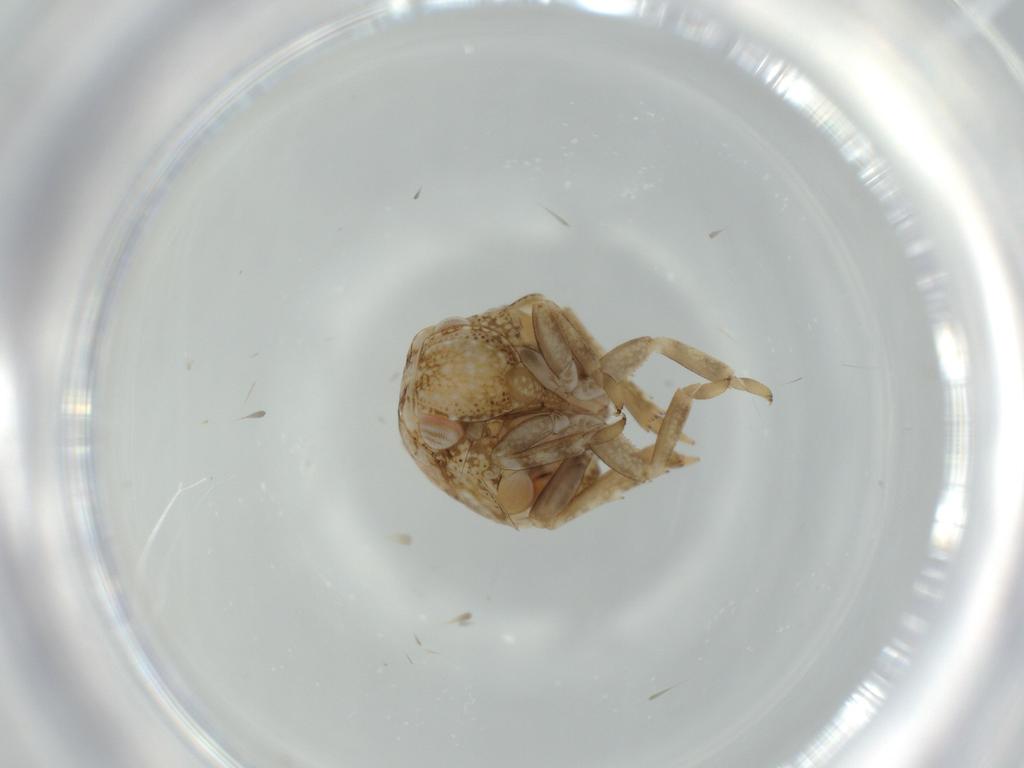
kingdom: Animalia
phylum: Arthropoda
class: Insecta
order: Hemiptera
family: Acanaloniidae
